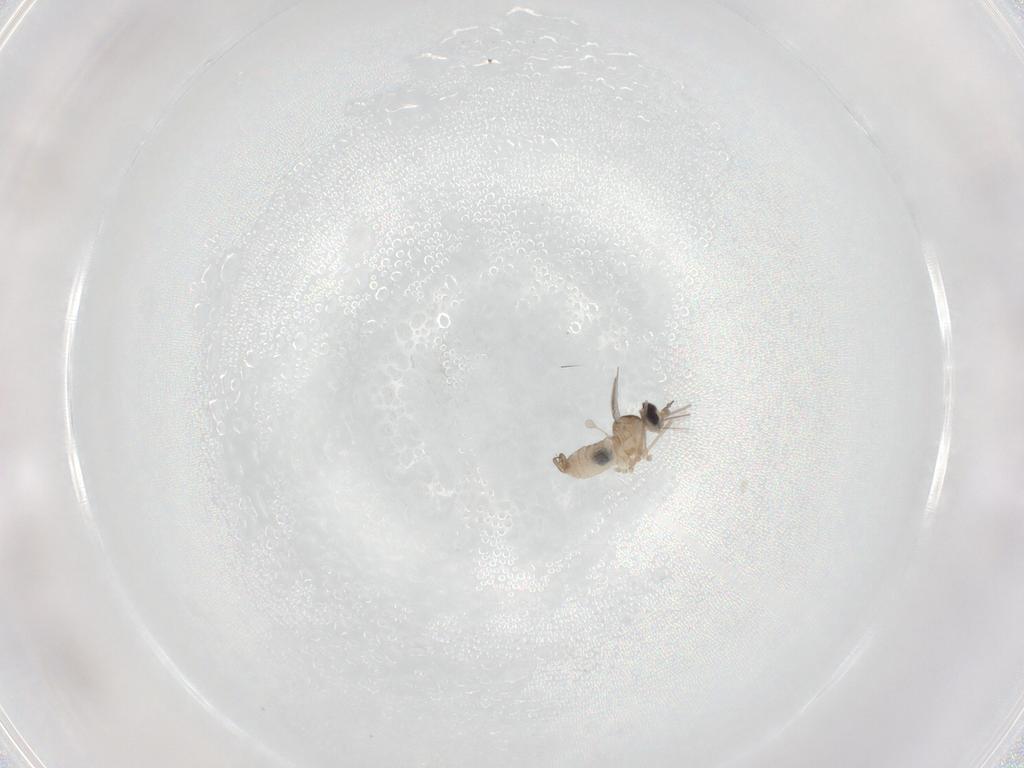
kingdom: Animalia
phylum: Arthropoda
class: Insecta
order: Diptera
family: Cecidomyiidae
